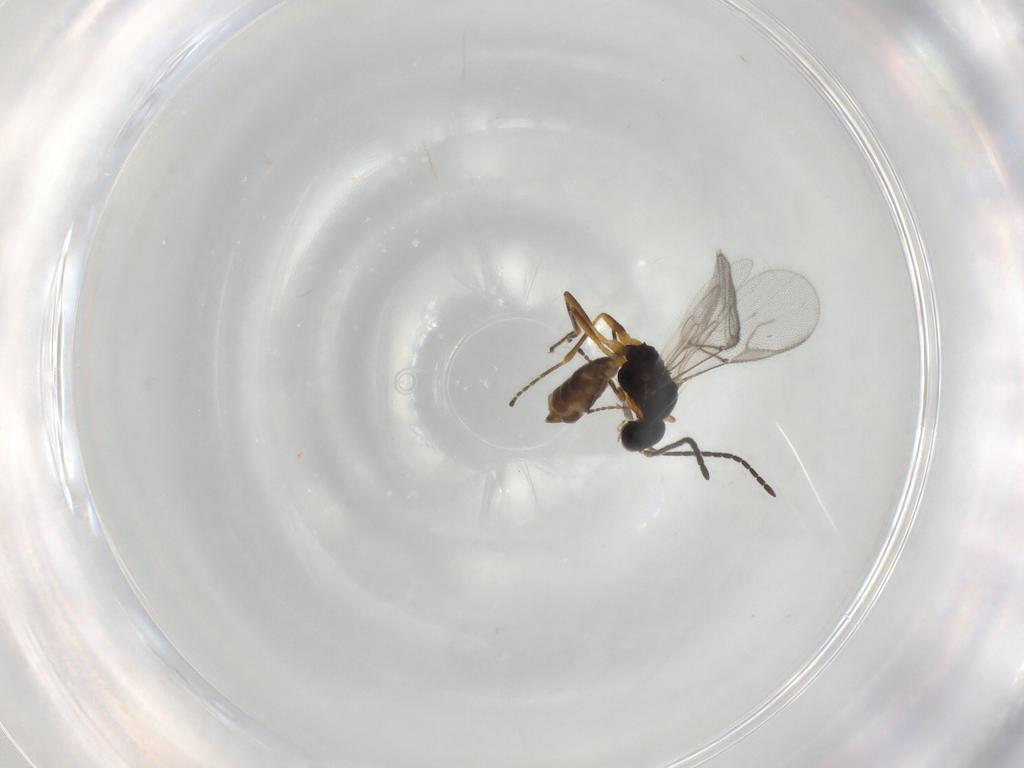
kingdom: Animalia
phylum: Arthropoda
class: Insecta
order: Hymenoptera
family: Braconidae
